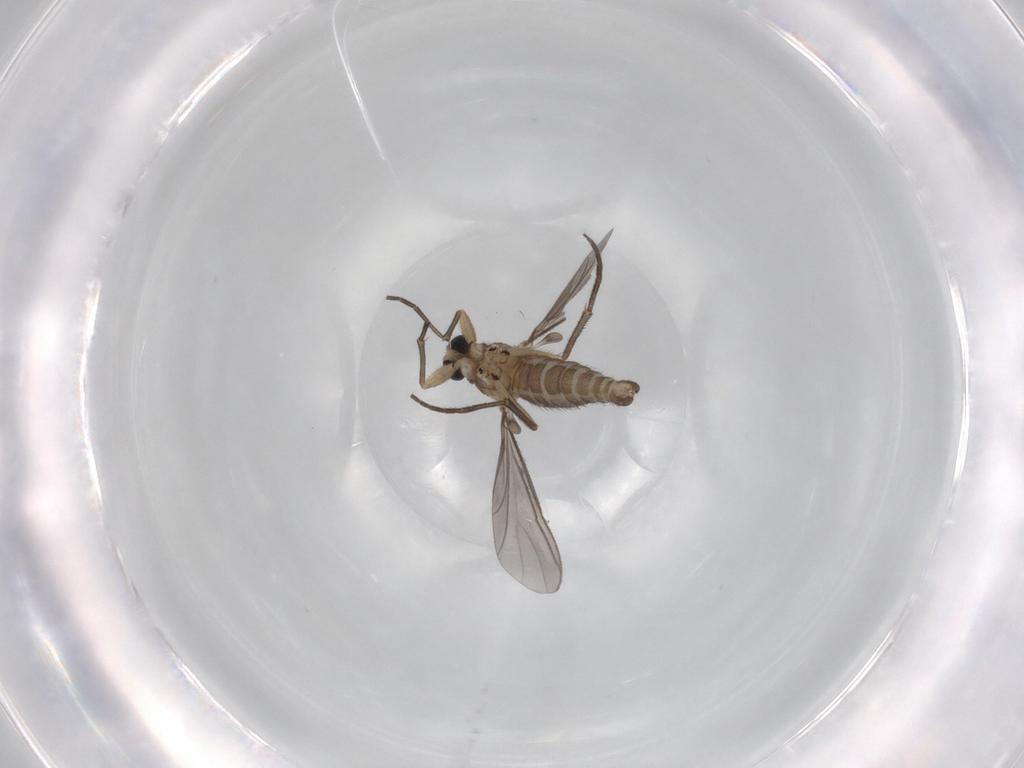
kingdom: Animalia
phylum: Arthropoda
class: Insecta
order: Diptera
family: Sciaridae
